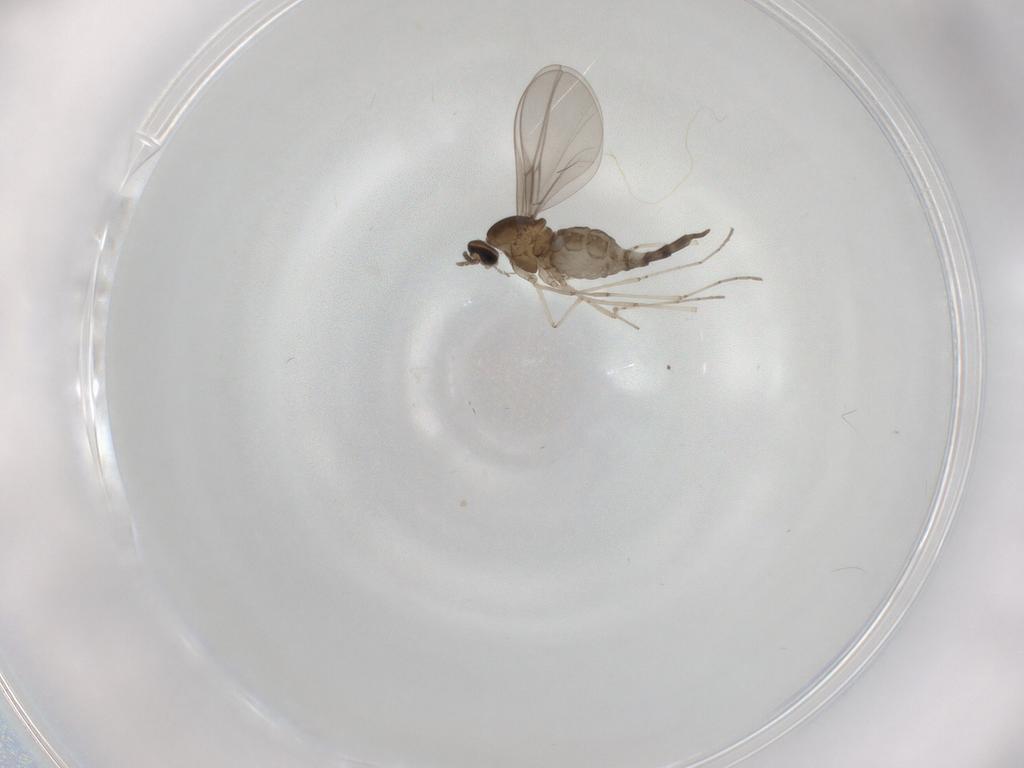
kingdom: Animalia
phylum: Arthropoda
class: Insecta
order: Diptera
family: Cecidomyiidae
